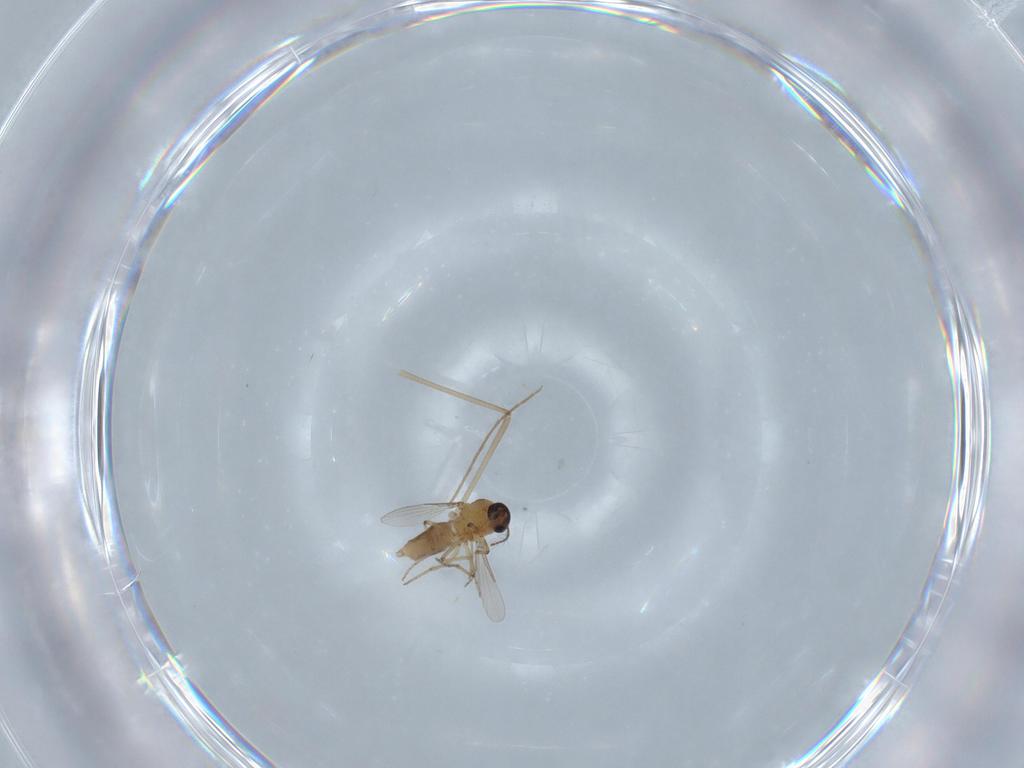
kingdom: Animalia
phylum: Arthropoda
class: Insecta
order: Diptera
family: Ceratopogonidae
